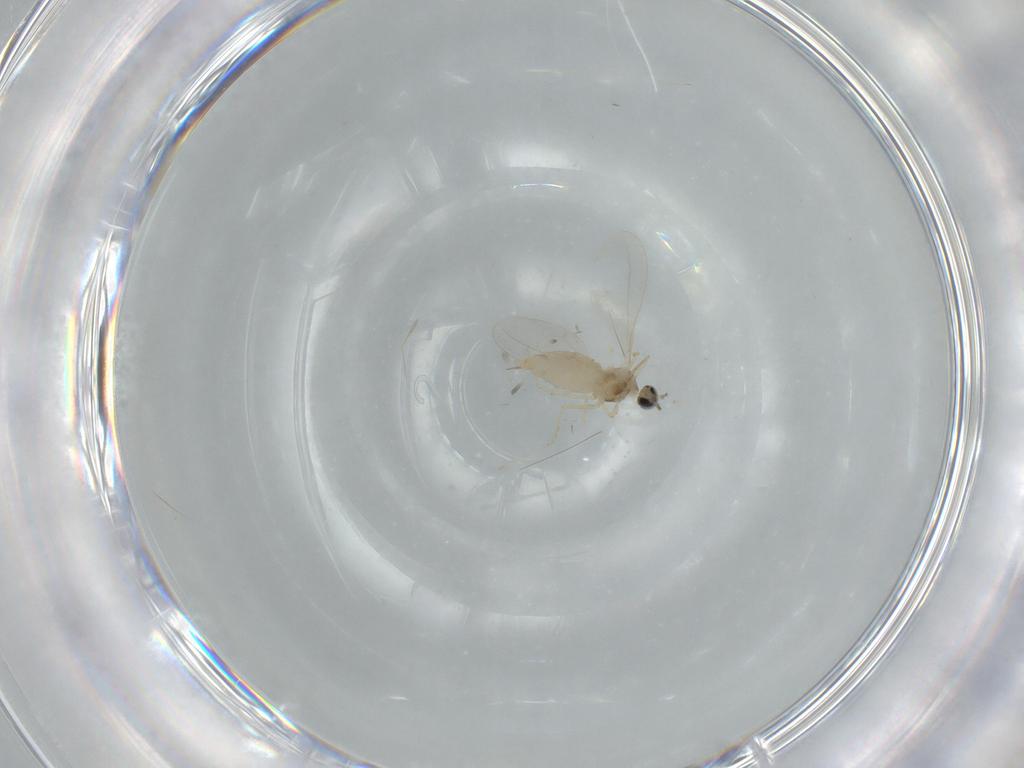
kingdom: Animalia
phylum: Arthropoda
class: Insecta
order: Diptera
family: Cecidomyiidae
